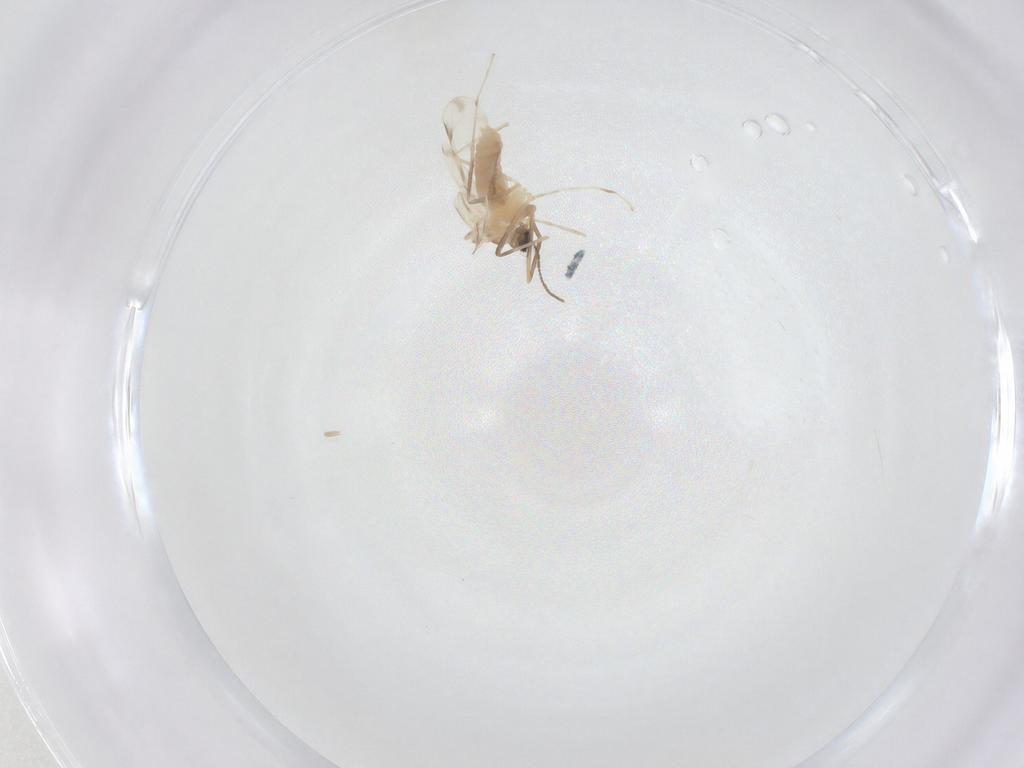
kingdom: Animalia
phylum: Arthropoda
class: Insecta
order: Diptera
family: Cecidomyiidae
